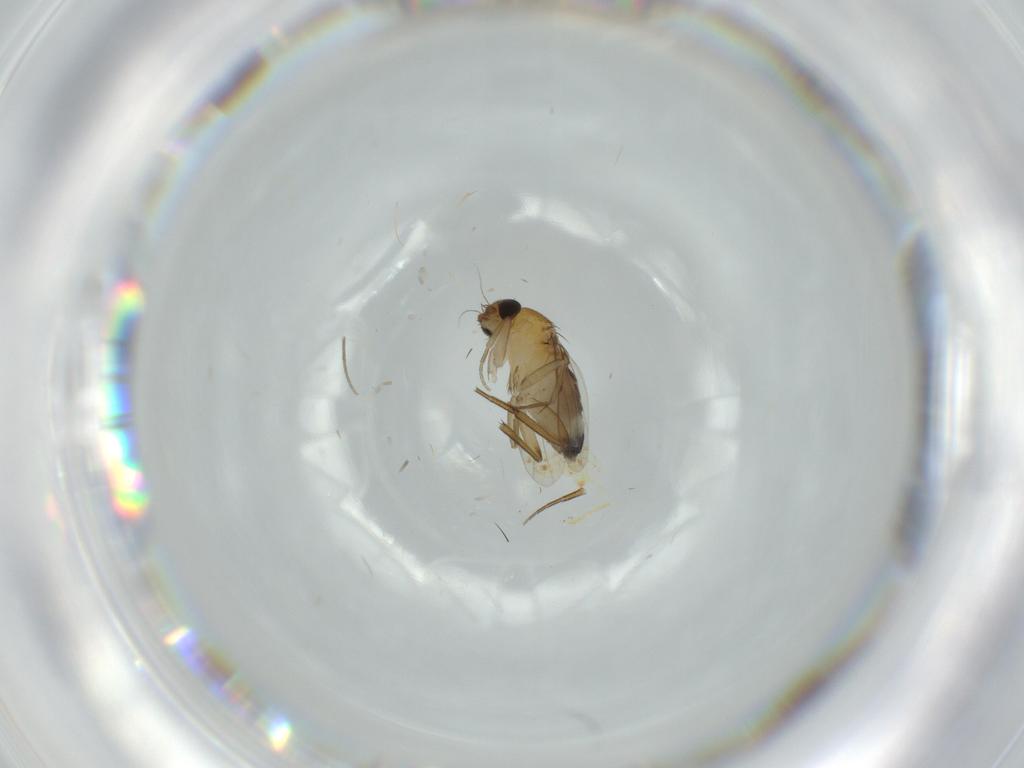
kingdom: Animalia
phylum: Arthropoda
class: Insecta
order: Diptera
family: Phoridae
